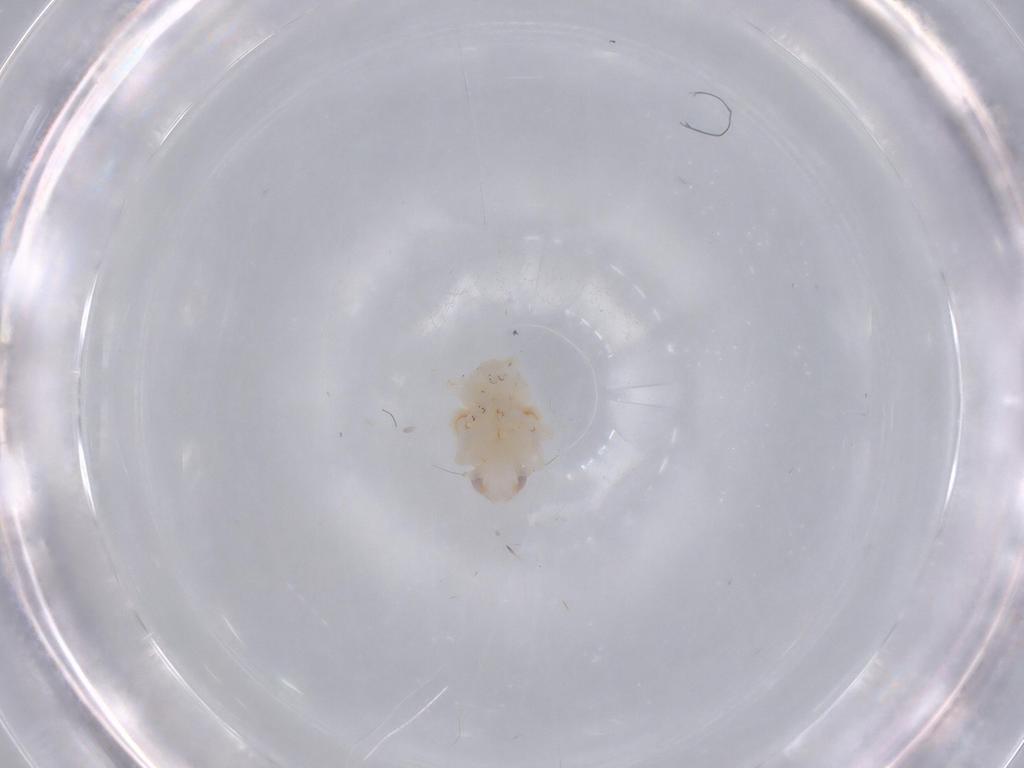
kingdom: Animalia
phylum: Arthropoda
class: Insecta
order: Hemiptera
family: Nogodinidae
